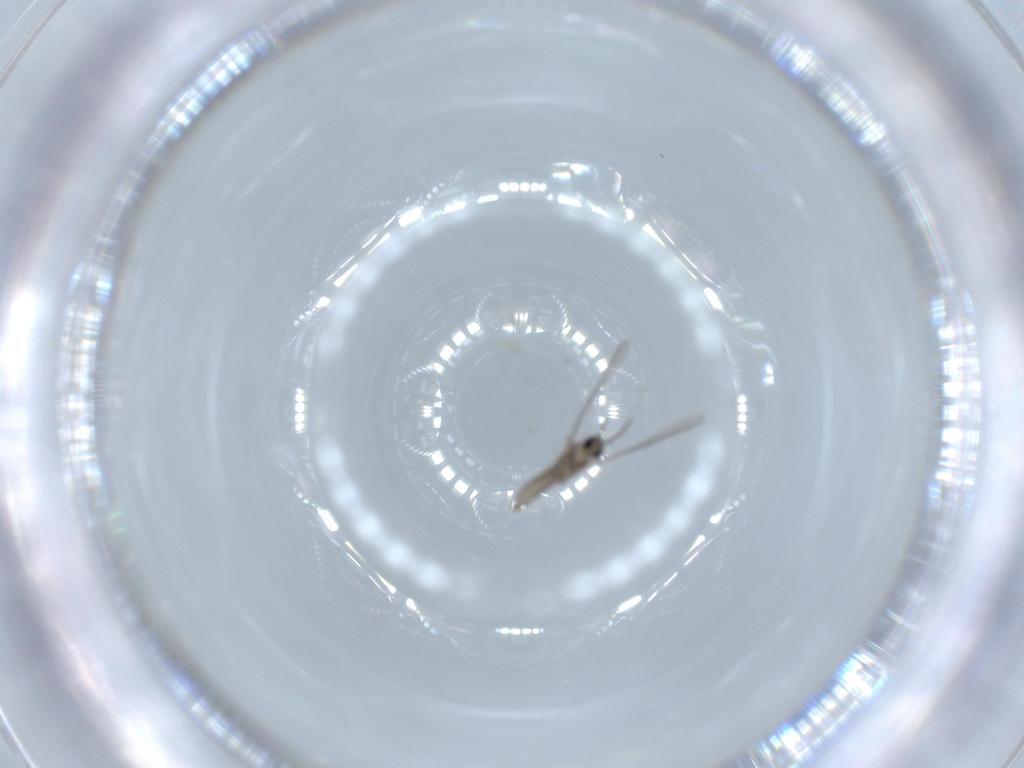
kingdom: Animalia
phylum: Arthropoda
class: Insecta
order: Diptera
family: Cecidomyiidae
